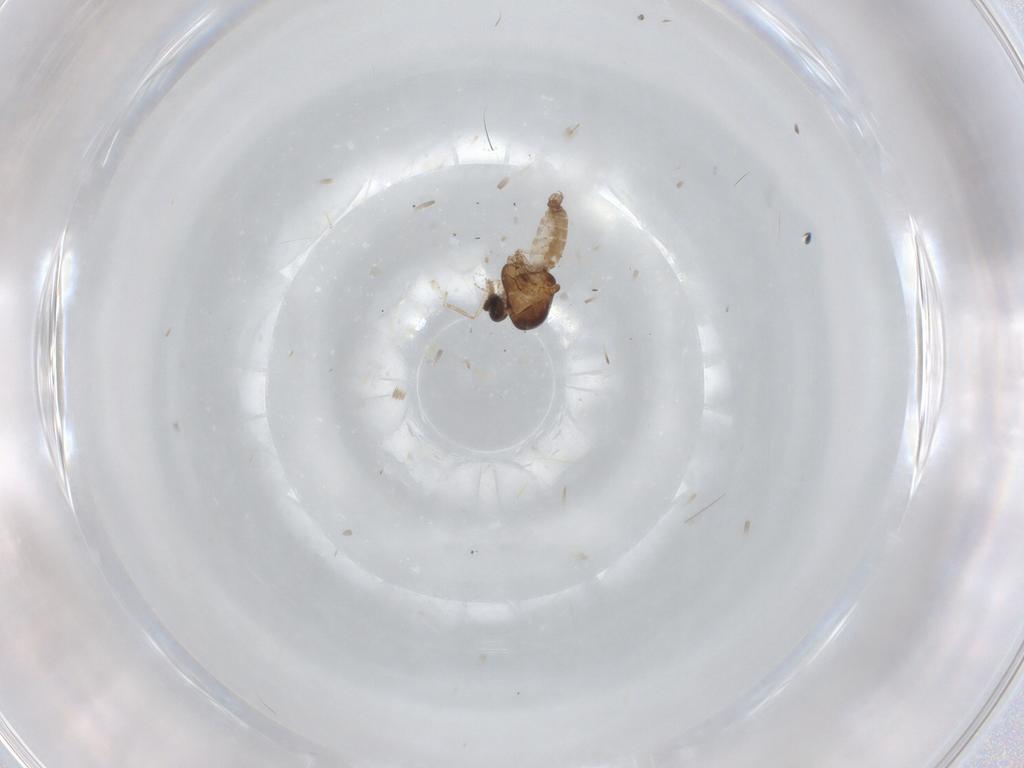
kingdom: Animalia
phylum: Arthropoda
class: Insecta
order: Diptera
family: Ceratopogonidae
